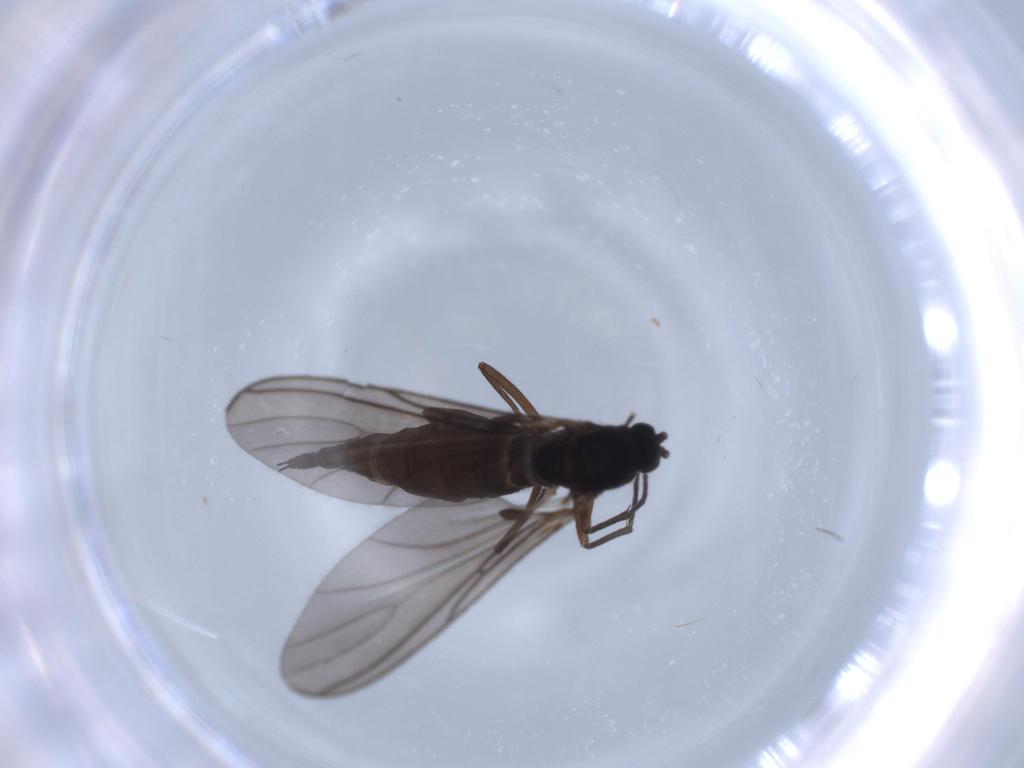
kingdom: Animalia
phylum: Arthropoda
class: Insecta
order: Diptera
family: Sciaridae
